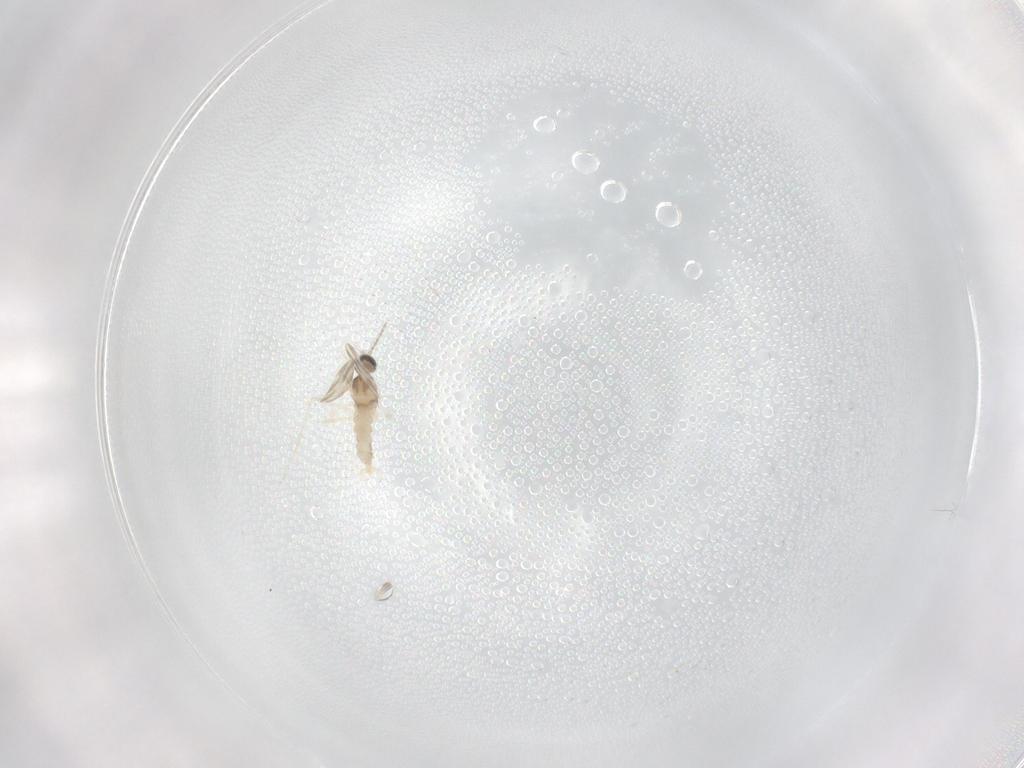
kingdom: Animalia
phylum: Arthropoda
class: Insecta
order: Diptera
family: Cecidomyiidae
